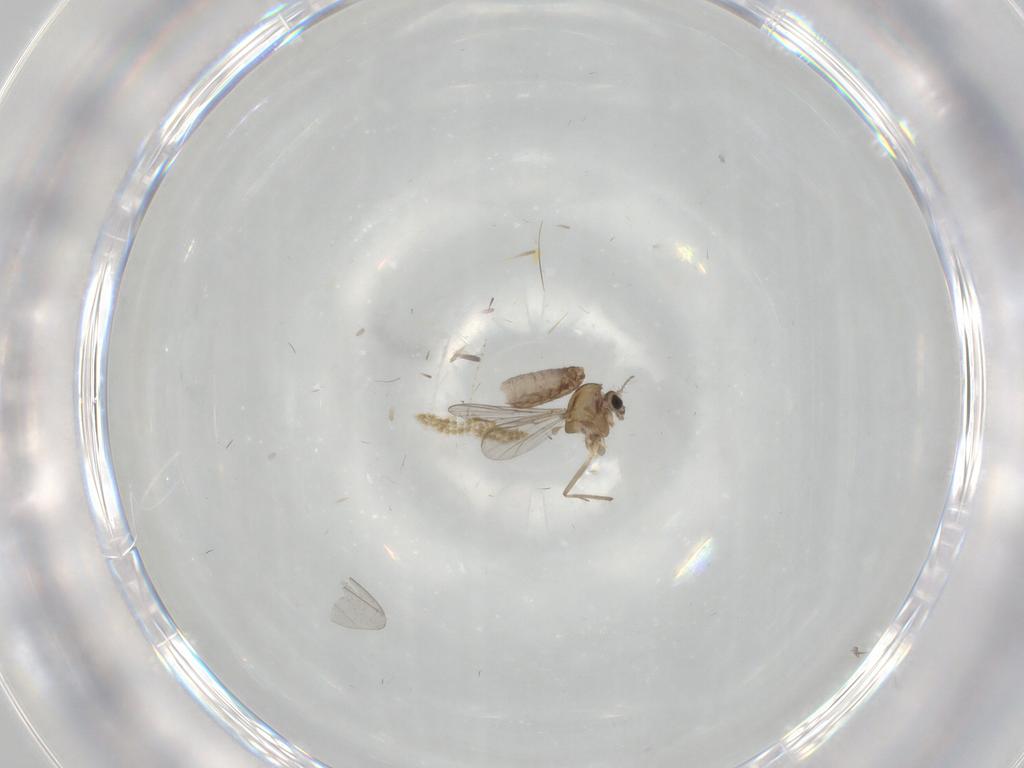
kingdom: Animalia
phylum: Arthropoda
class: Insecta
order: Diptera
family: Chironomidae
